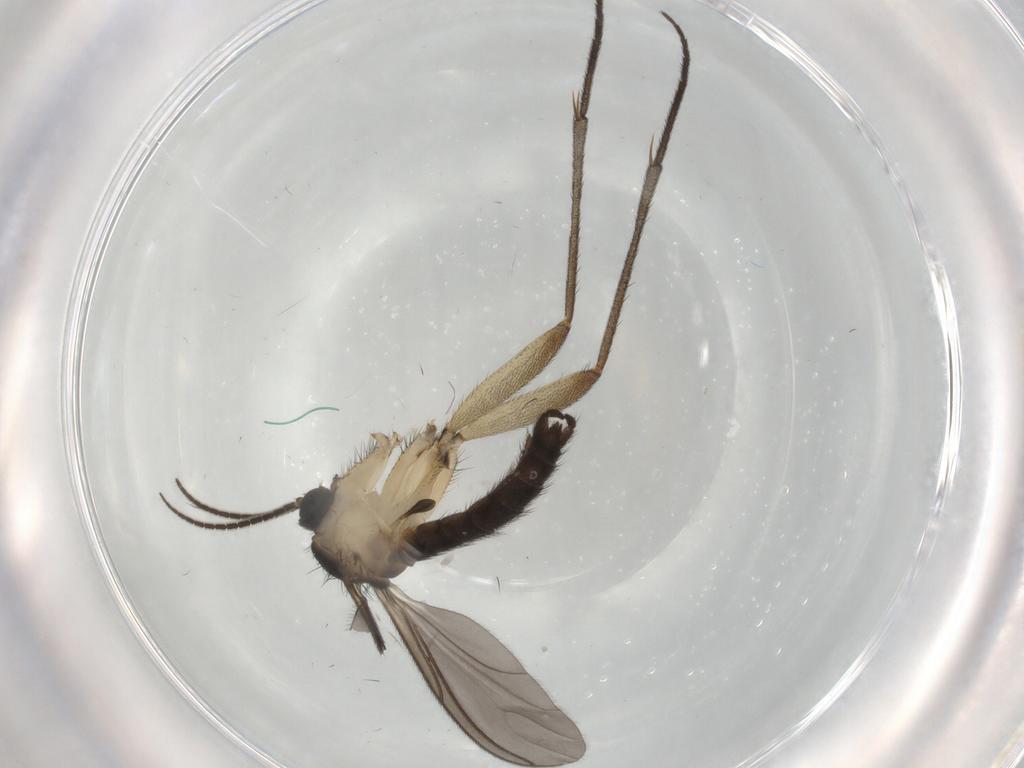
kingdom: Animalia
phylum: Arthropoda
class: Insecta
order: Diptera
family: Sciaridae
